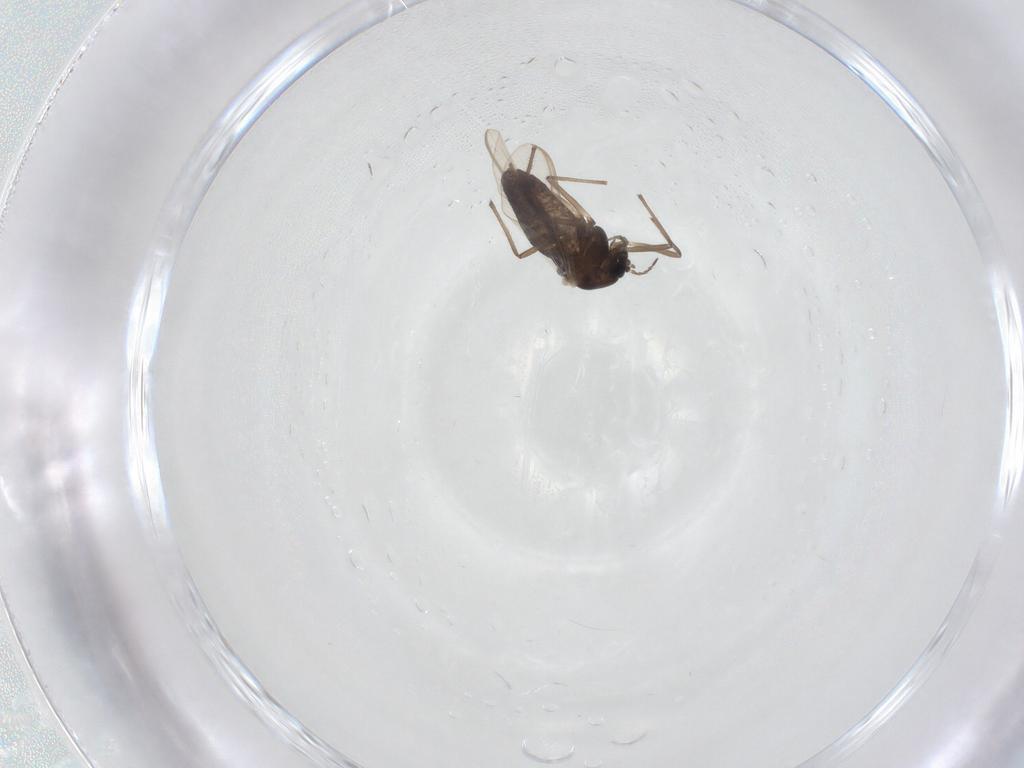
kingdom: Animalia
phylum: Arthropoda
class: Insecta
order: Diptera
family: Chironomidae
